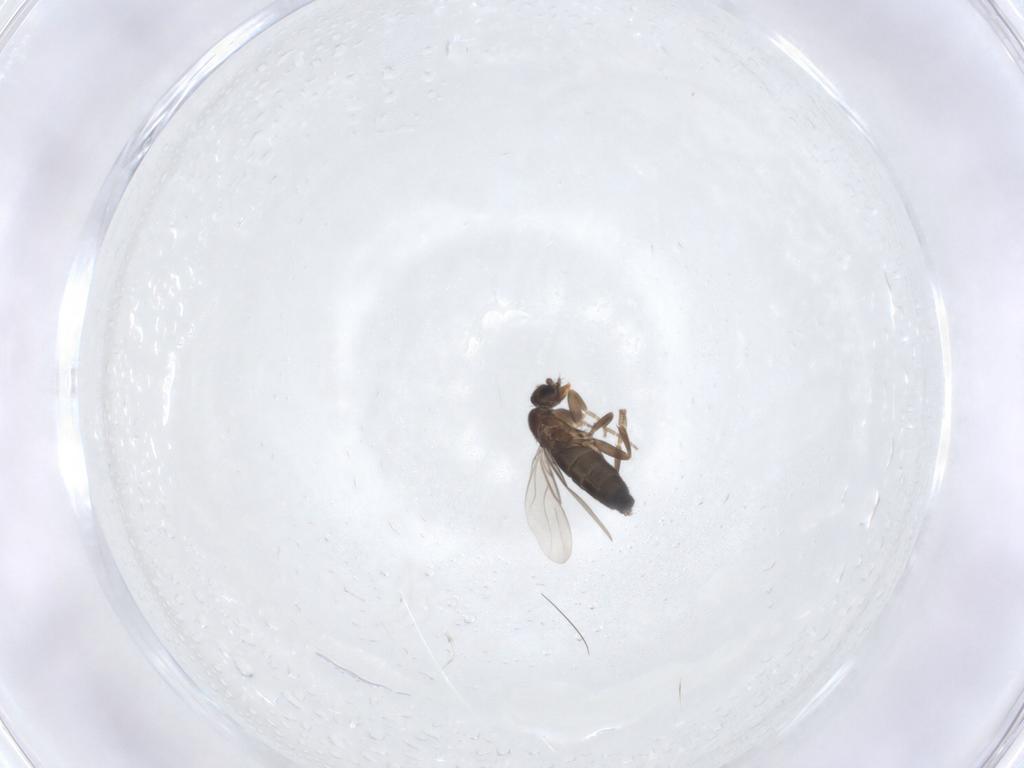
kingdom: Animalia
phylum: Arthropoda
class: Insecta
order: Diptera
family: Phoridae
